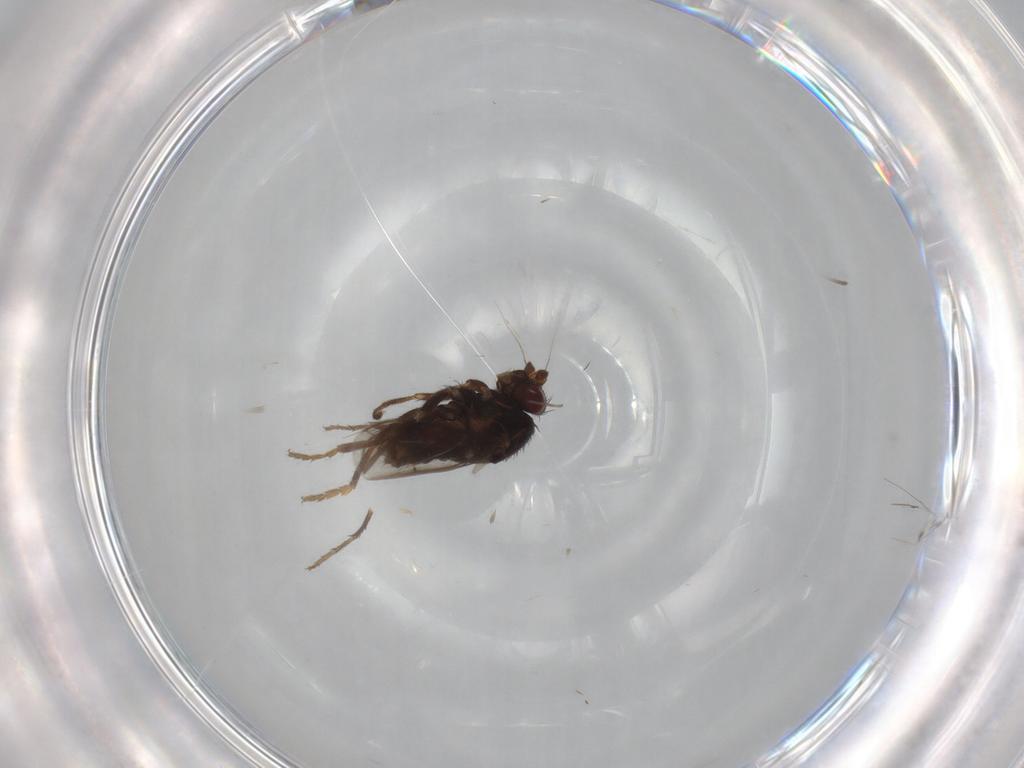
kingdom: Animalia
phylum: Arthropoda
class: Insecta
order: Diptera
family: Sphaeroceridae
